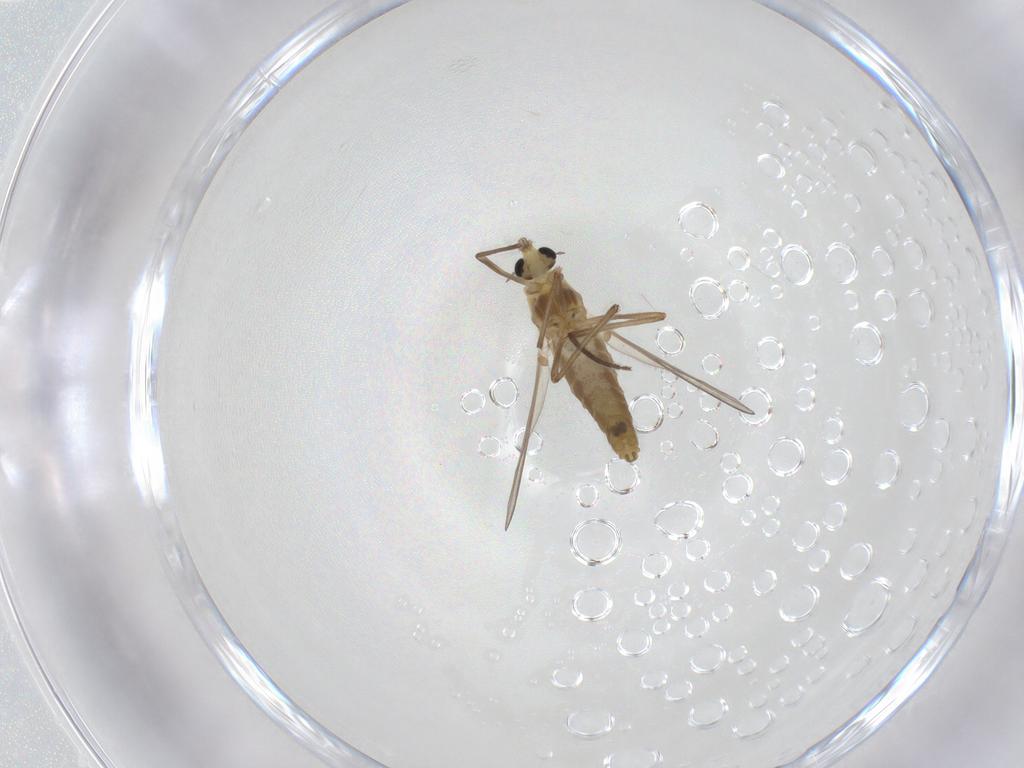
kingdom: Animalia
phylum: Arthropoda
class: Insecta
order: Diptera
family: Chironomidae
